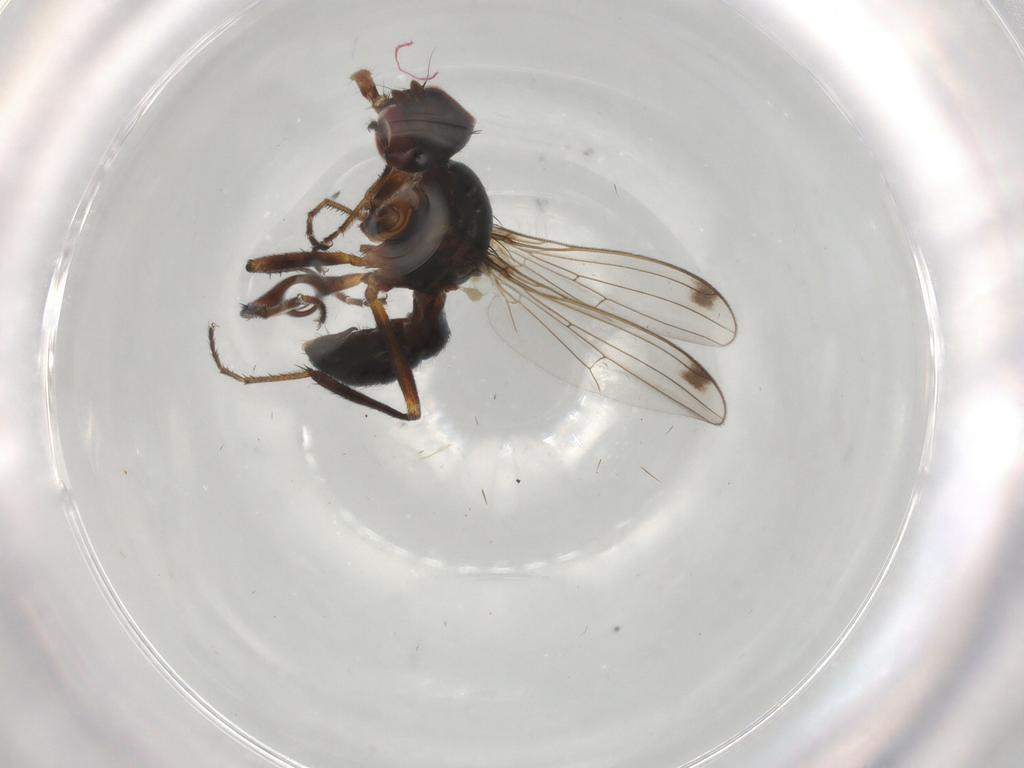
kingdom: Animalia
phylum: Arthropoda
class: Insecta
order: Diptera
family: Sepsidae
